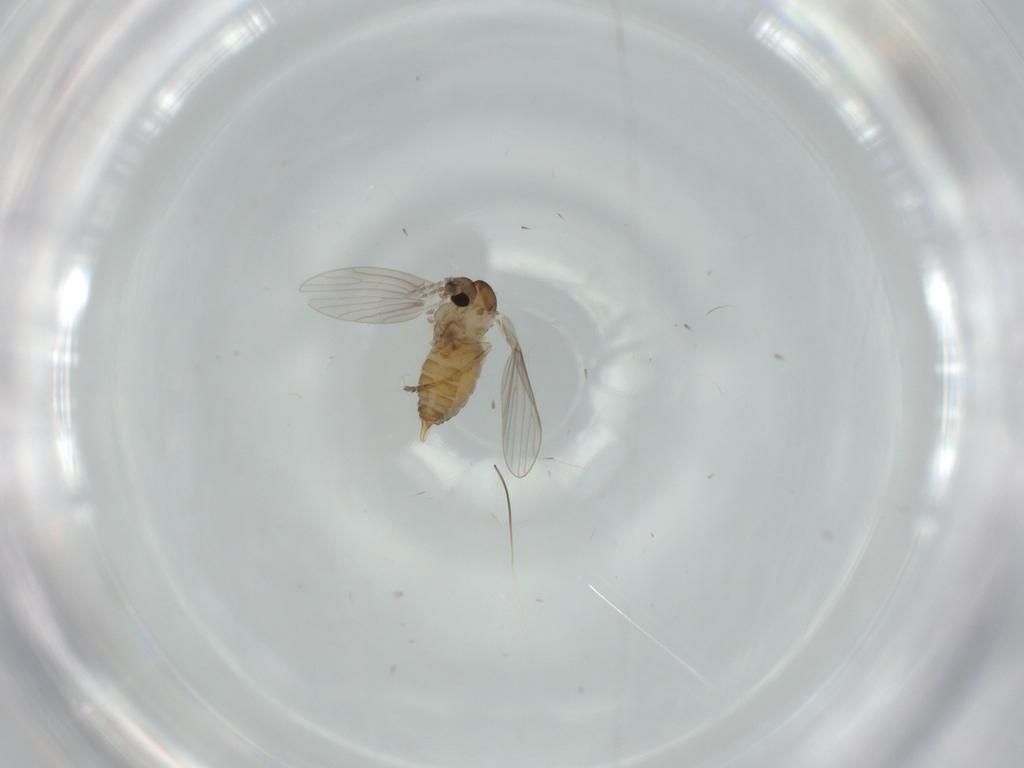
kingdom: Animalia
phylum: Arthropoda
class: Insecta
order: Diptera
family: Psychodidae
